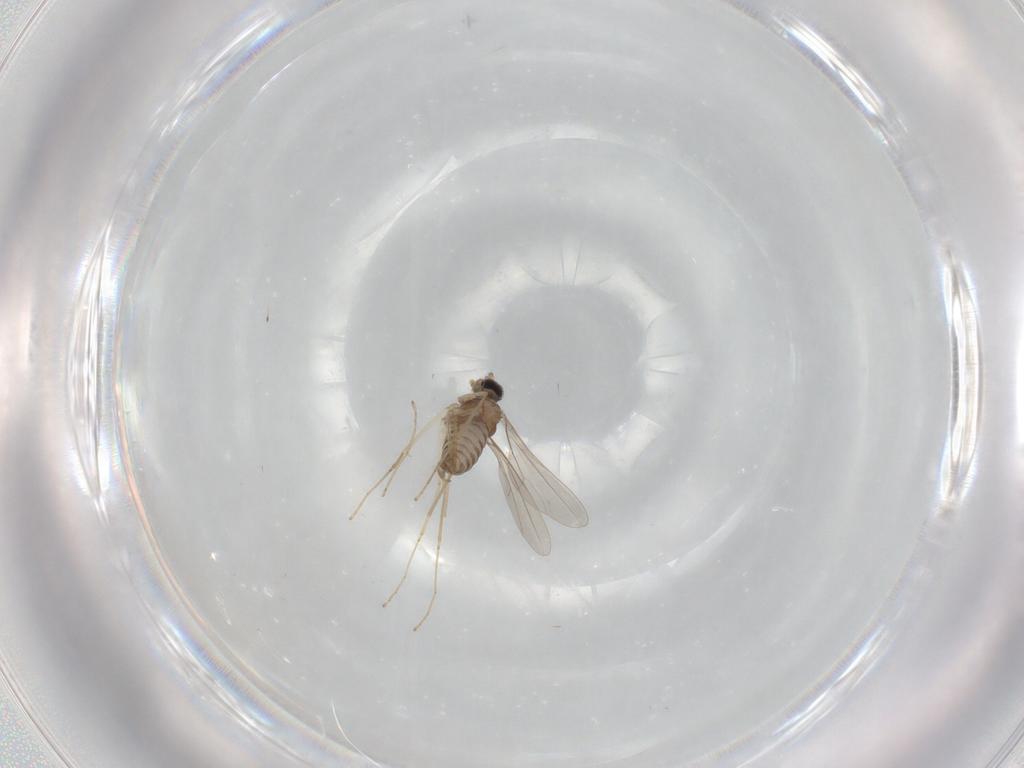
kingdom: Animalia
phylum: Arthropoda
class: Insecta
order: Diptera
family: Cecidomyiidae
